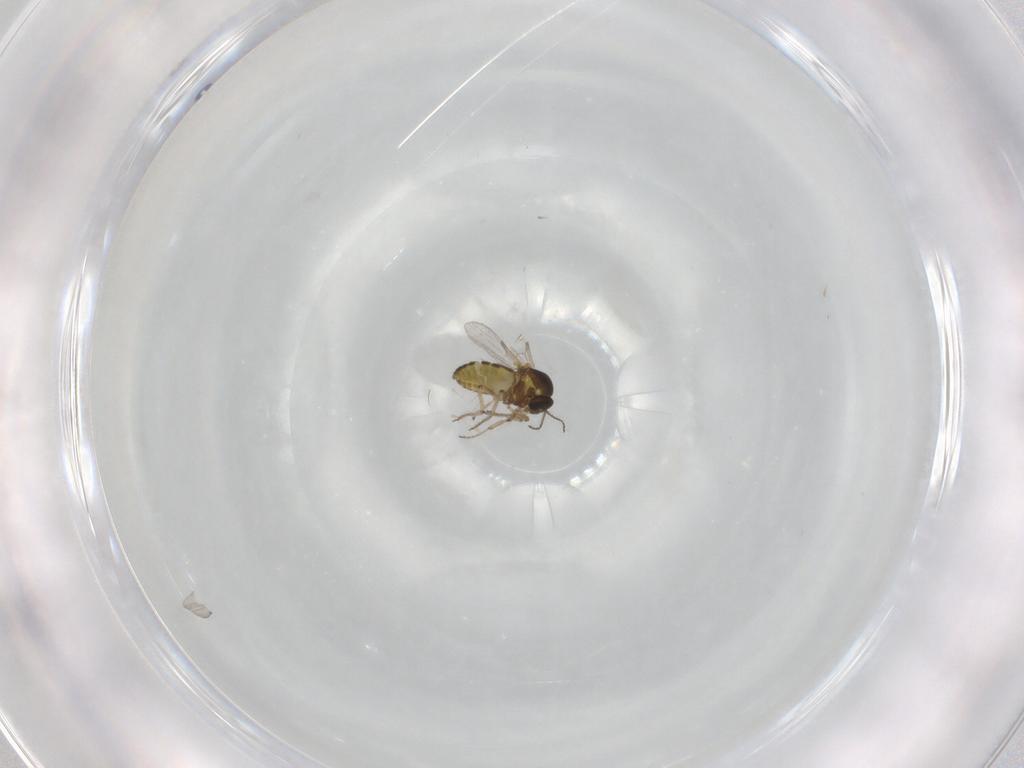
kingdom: Animalia
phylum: Arthropoda
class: Insecta
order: Diptera
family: Ceratopogonidae
